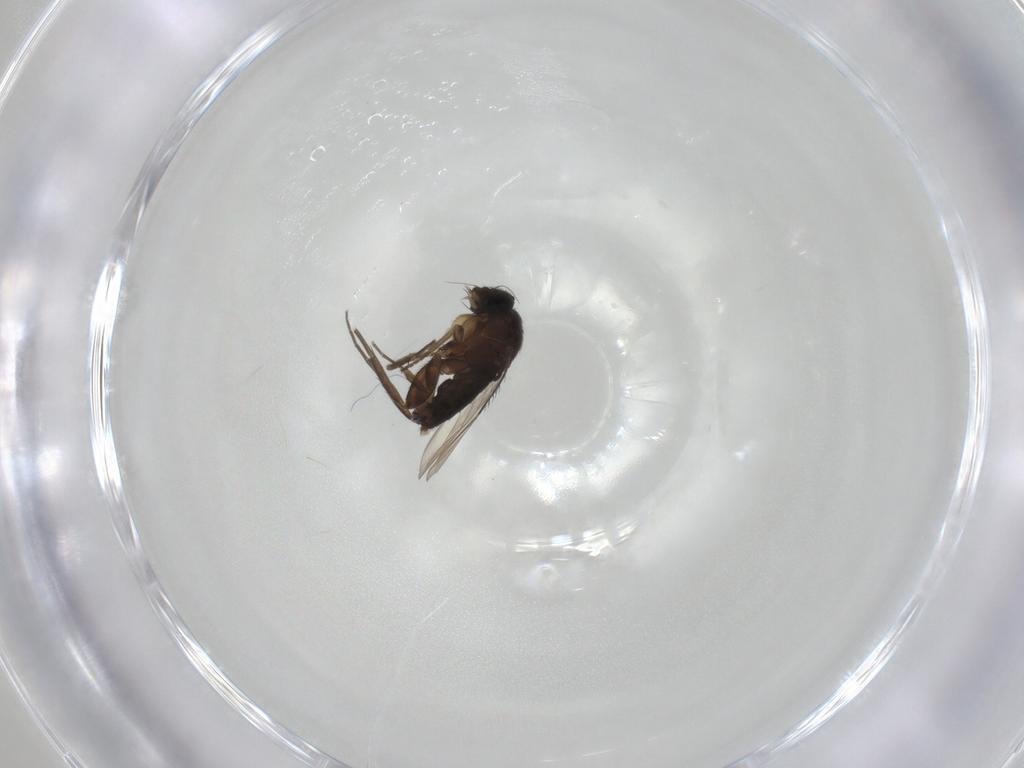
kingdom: Animalia
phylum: Arthropoda
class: Insecta
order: Diptera
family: Phoridae
